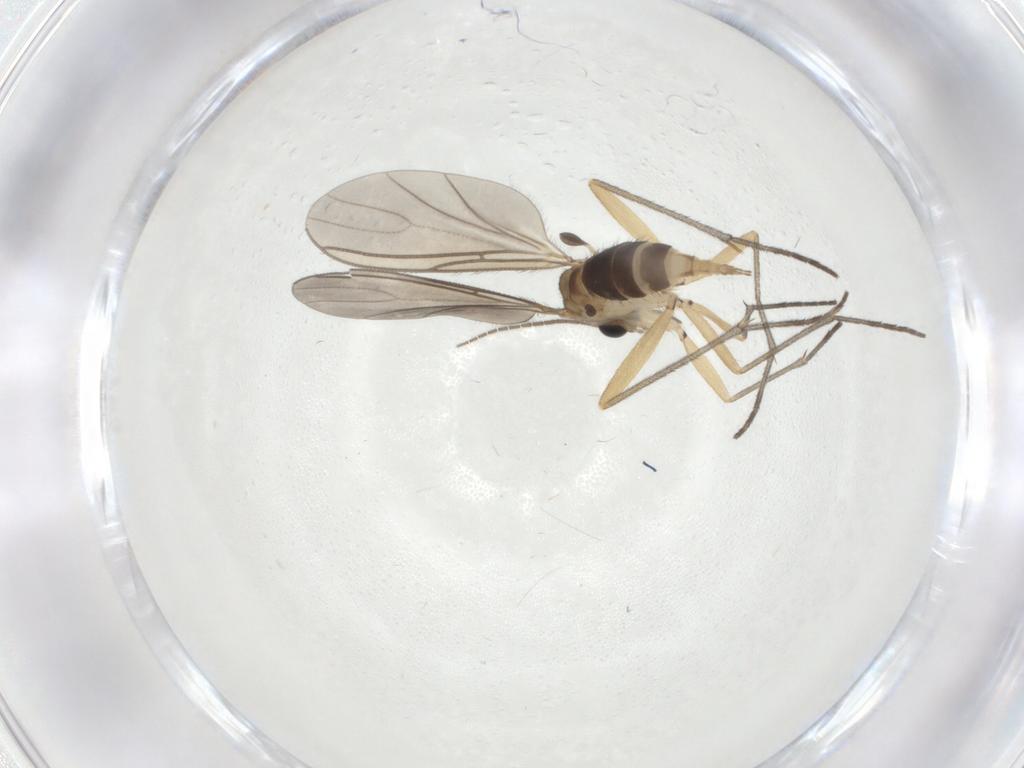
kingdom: Animalia
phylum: Arthropoda
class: Insecta
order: Diptera
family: Sciaridae
